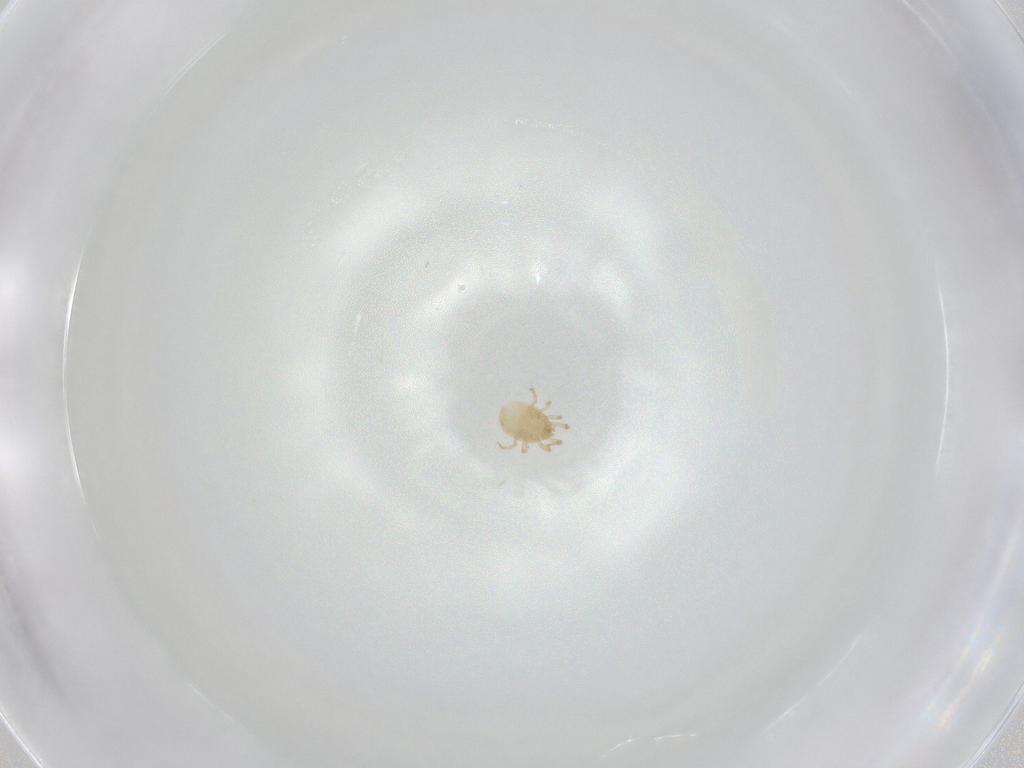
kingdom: Animalia
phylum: Arthropoda
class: Arachnida
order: Mesostigmata
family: Phytoseiidae
